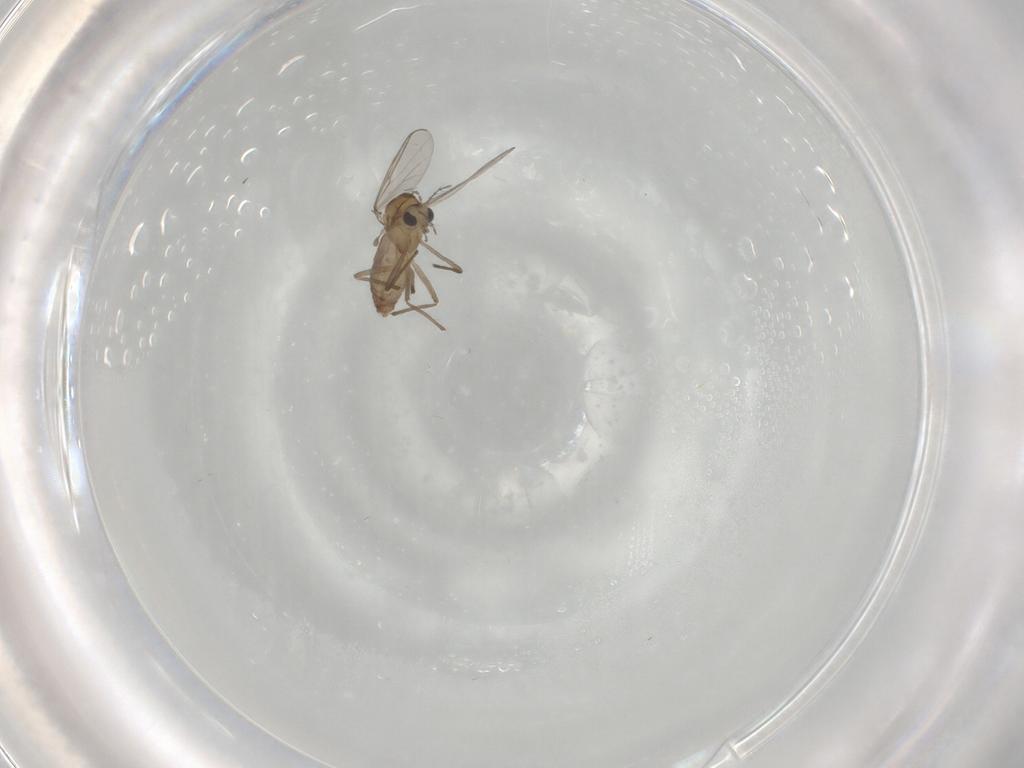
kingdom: Animalia
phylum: Arthropoda
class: Insecta
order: Diptera
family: Chironomidae
